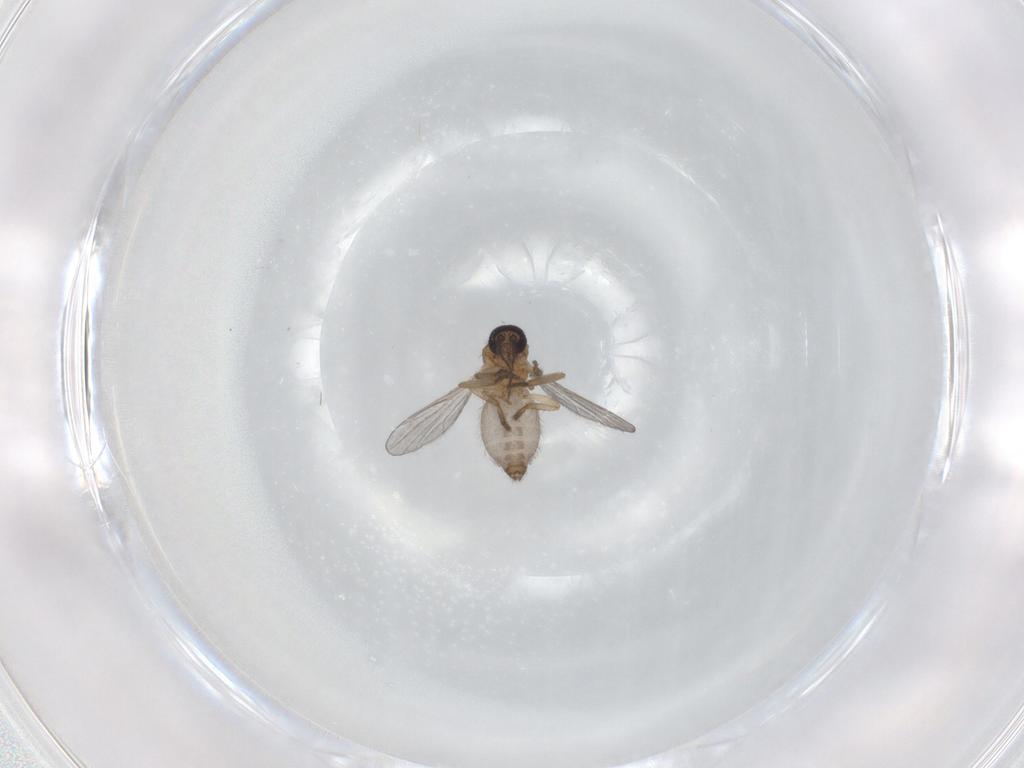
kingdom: Animalia
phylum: Arthropoda
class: Insecta
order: Diptera
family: Ceratopogonidae
